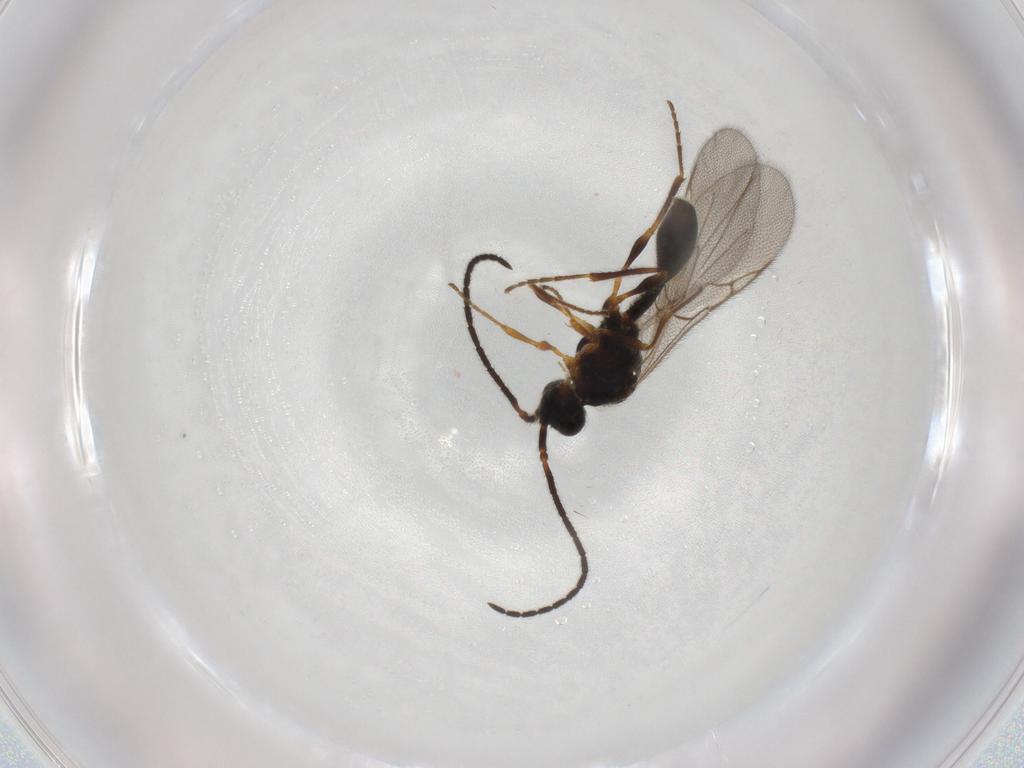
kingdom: Animalia
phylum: Arthropoda
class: Insecta
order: Hymenoptera
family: Diapriidae
